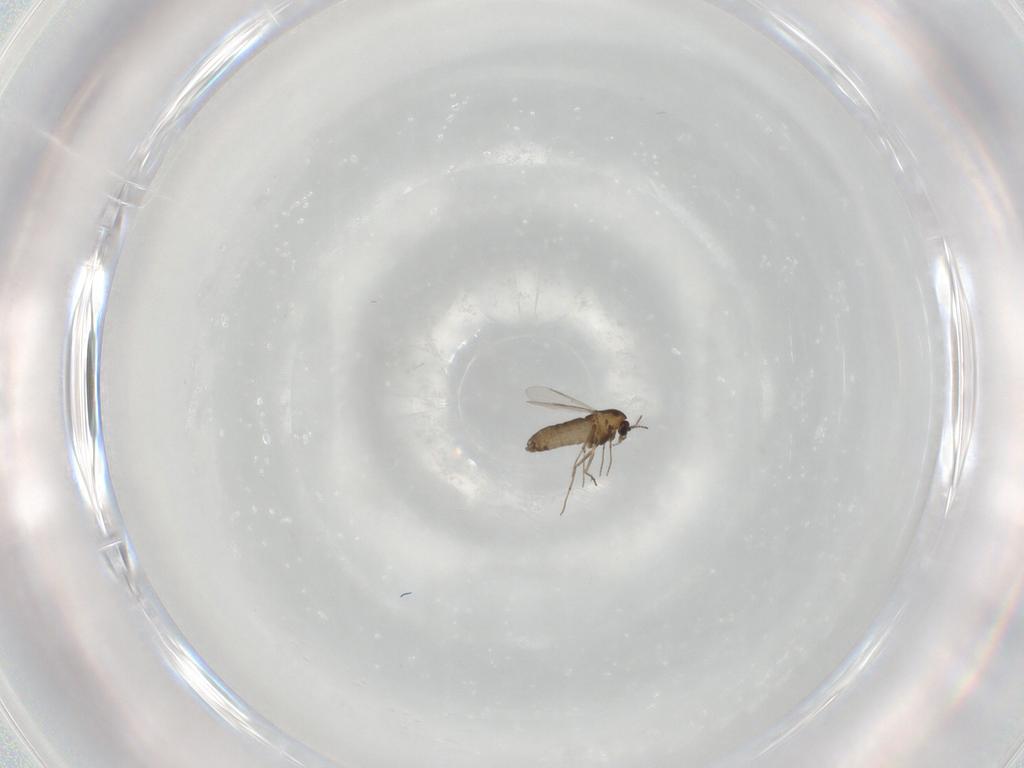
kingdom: Animalia
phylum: Arthropoda
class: Insecta
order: Diptera
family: Chironomidae
